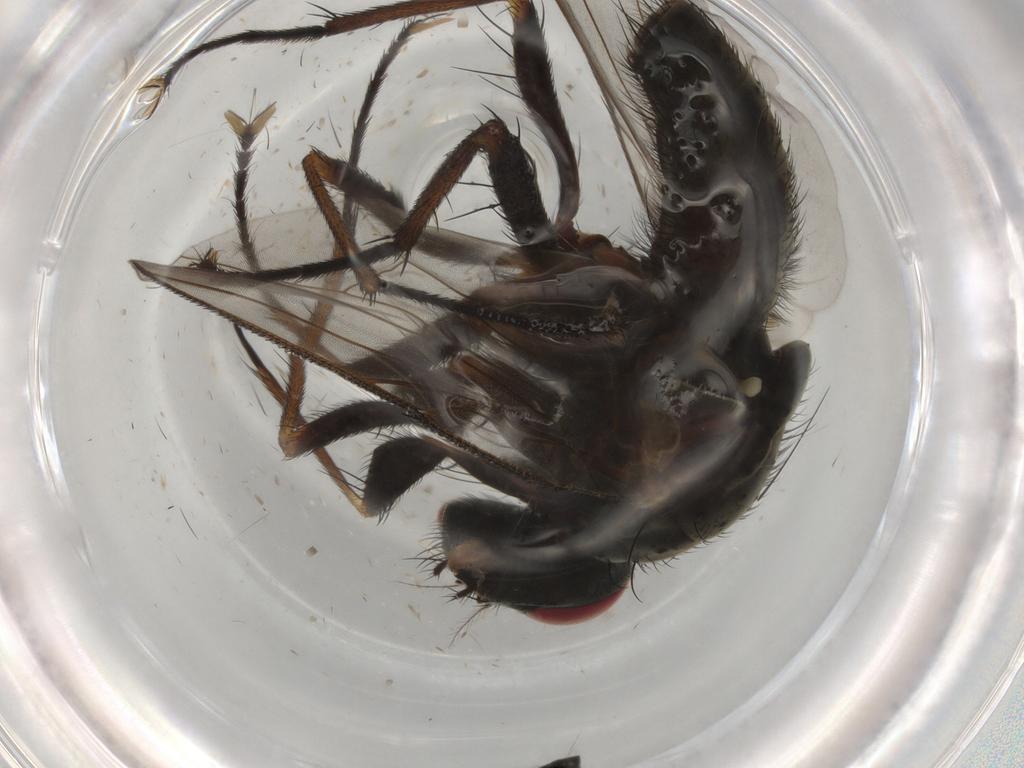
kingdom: Animalia
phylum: Arthropoda
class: Insecta
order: Diptera
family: Muscidae
